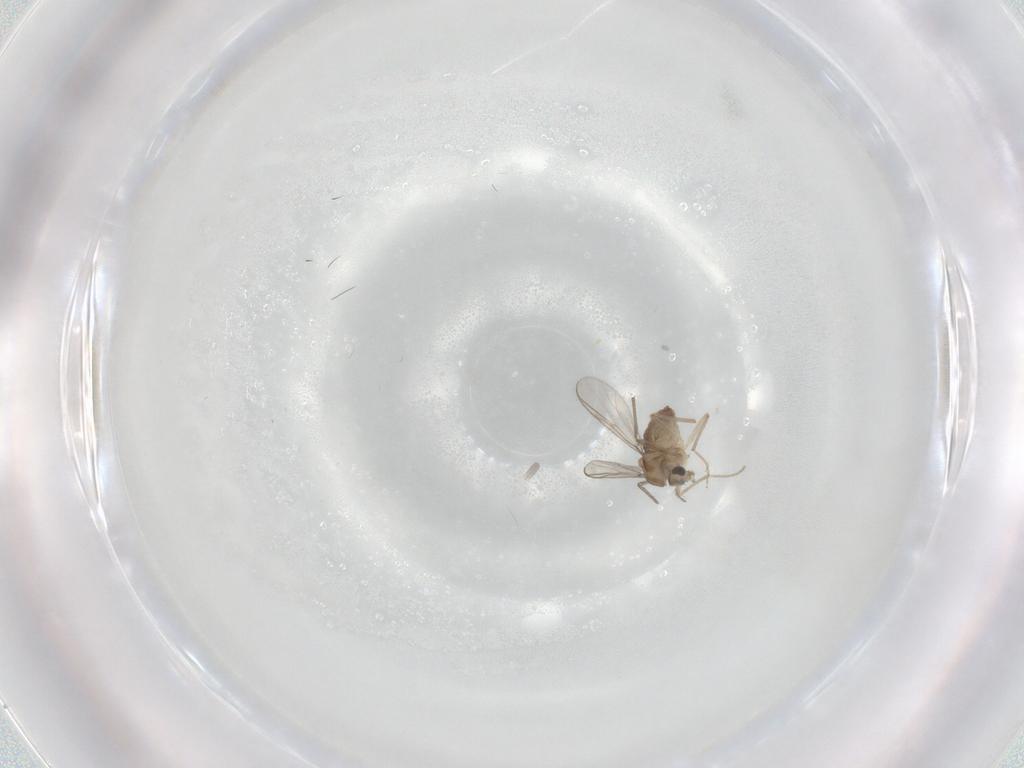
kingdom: Animalia
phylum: Arthropoda
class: Insecta
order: Diptera
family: Chironomidae
